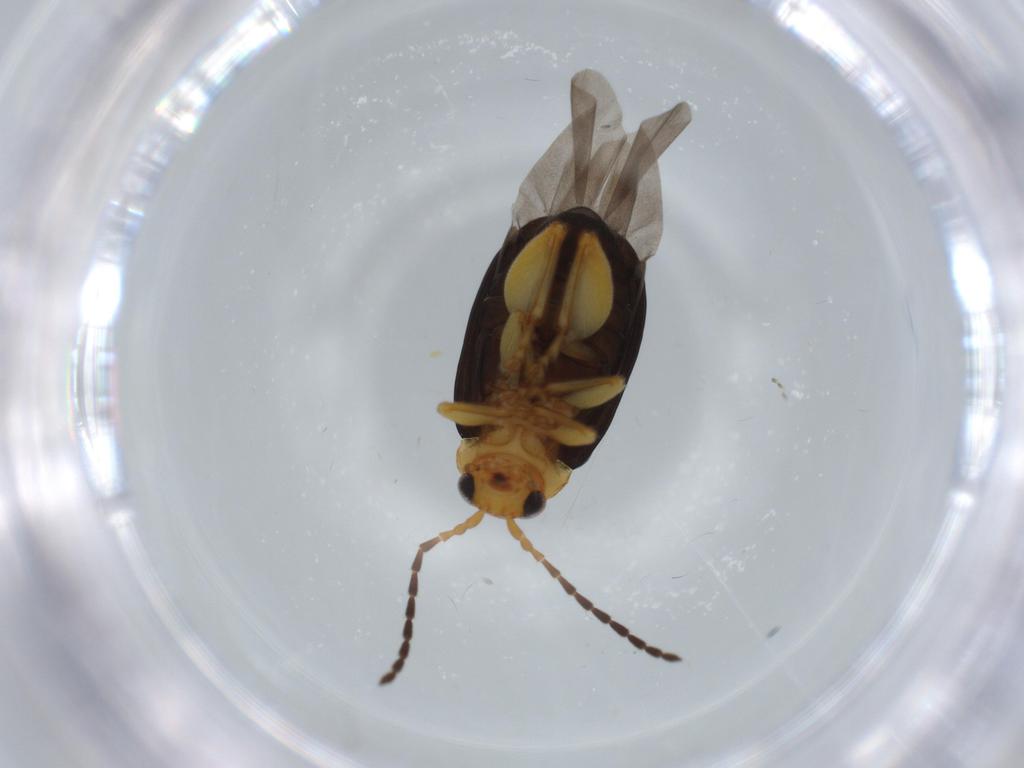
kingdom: Animalia
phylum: Arthropoda
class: Insecta
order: Coleoptera
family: Chrysomelidae
